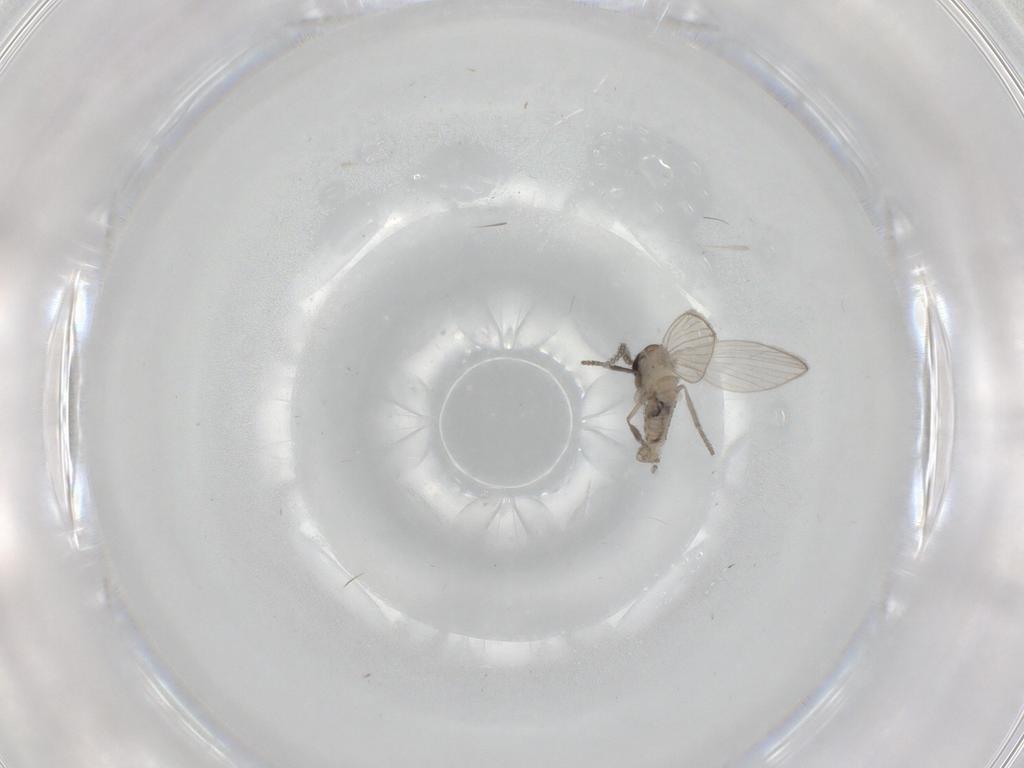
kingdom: Animalia
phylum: Arthropoda
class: Insecta
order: Diptera
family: Psychodidae
